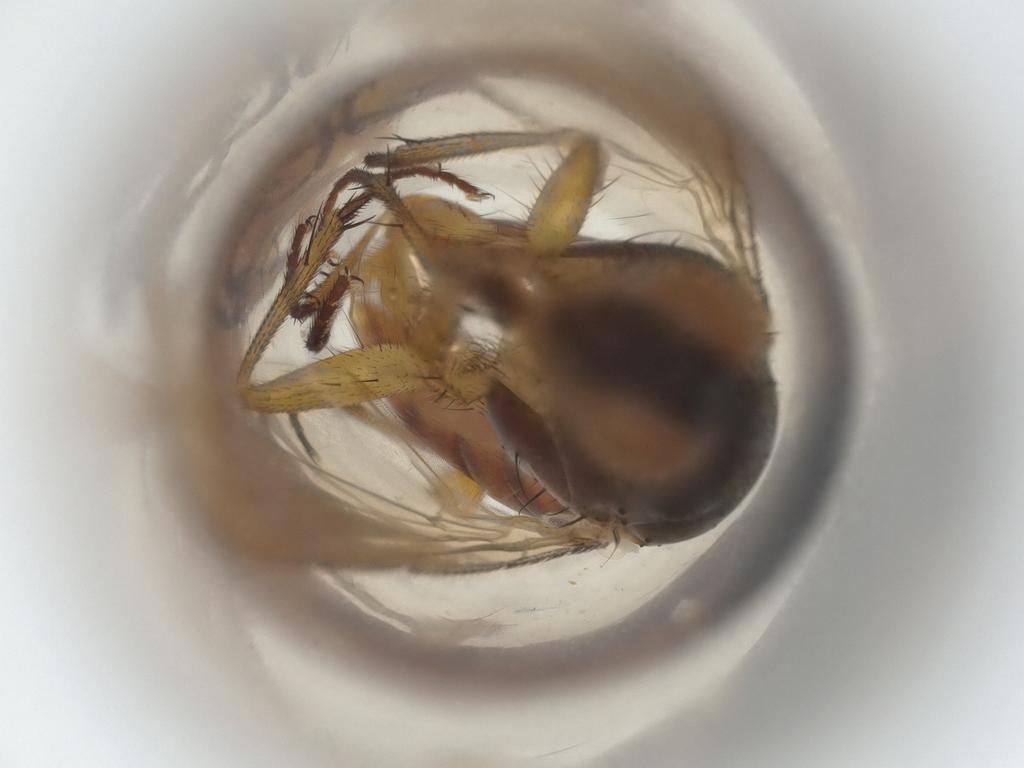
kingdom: Animalia
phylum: Arthropoda
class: Insecta
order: Diptera
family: Muscidae
